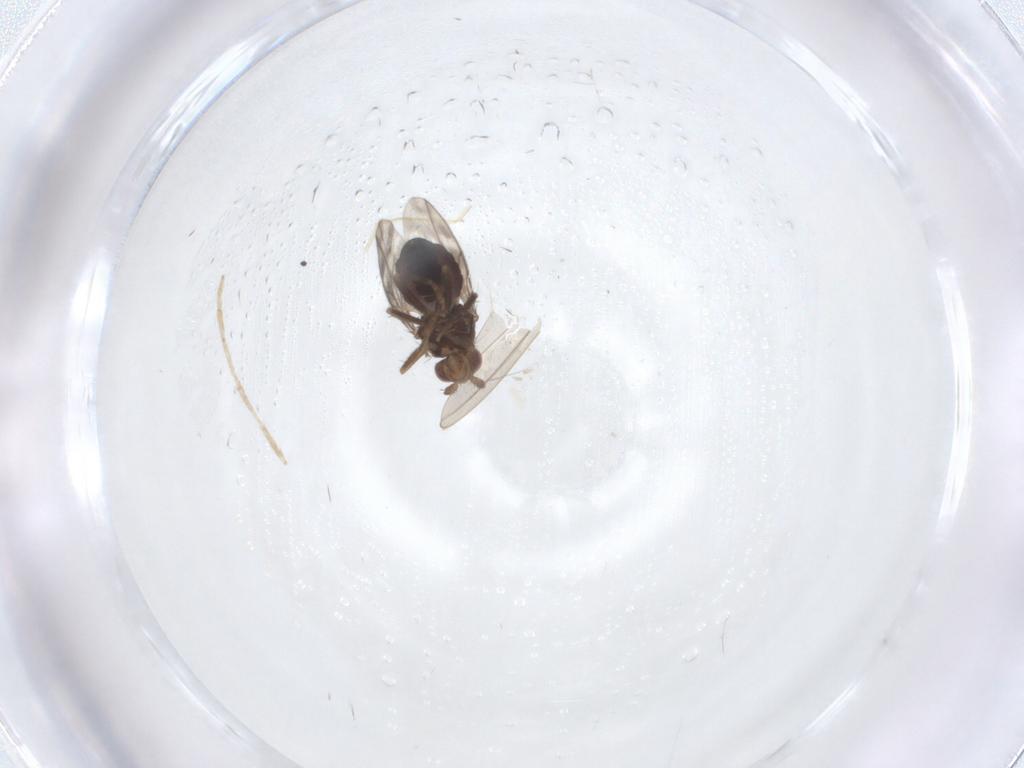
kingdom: Animalia
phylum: Arthropoda
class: Insecta
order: Diptera
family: Sphaeroceridae
